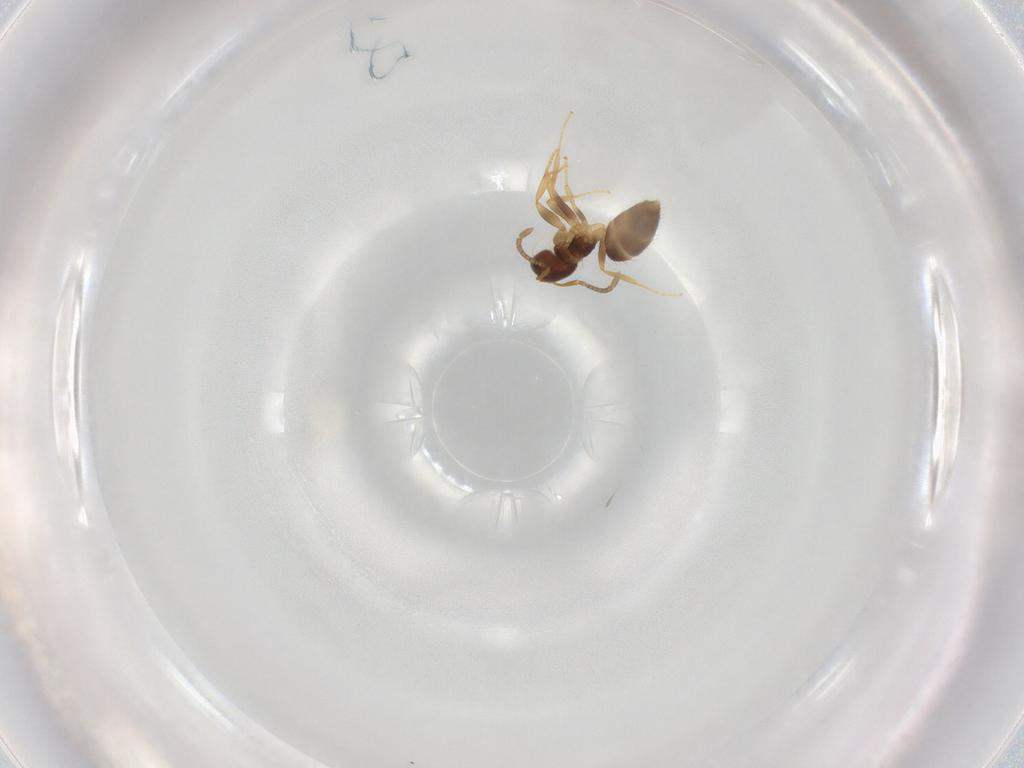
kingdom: Animalia
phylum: Arthropoda
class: Insecta
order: Hymenoptera
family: Formicidae
